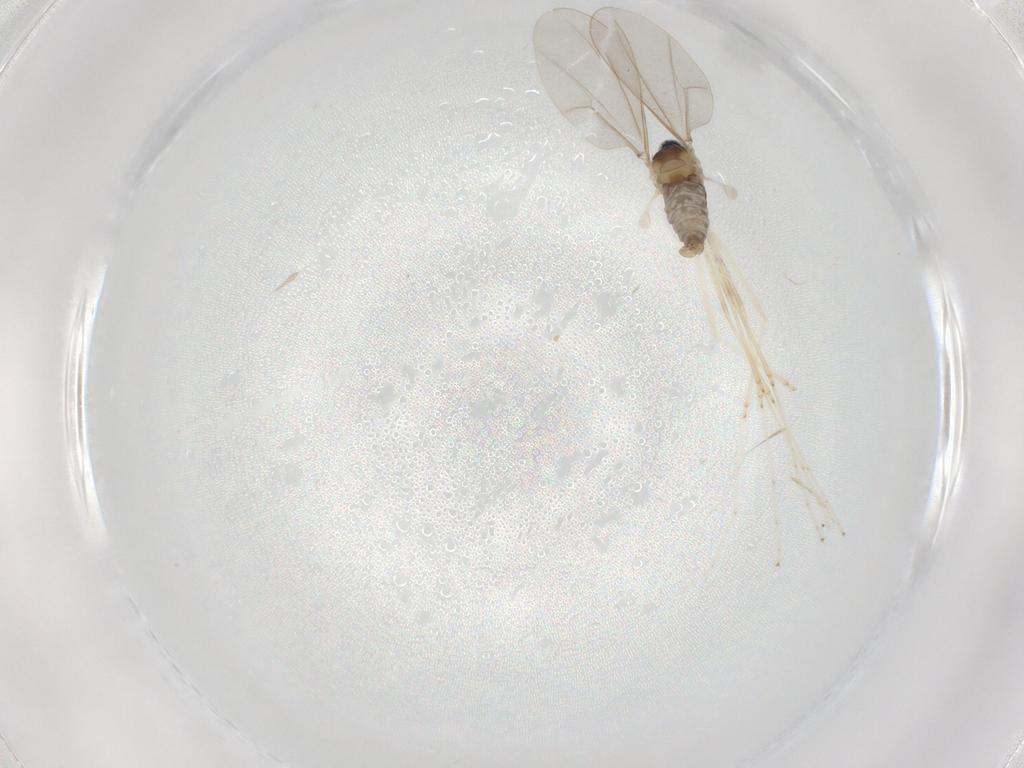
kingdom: Animalia
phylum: Arthropoda
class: Insecta
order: Diptera
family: Cecidomyiidae
